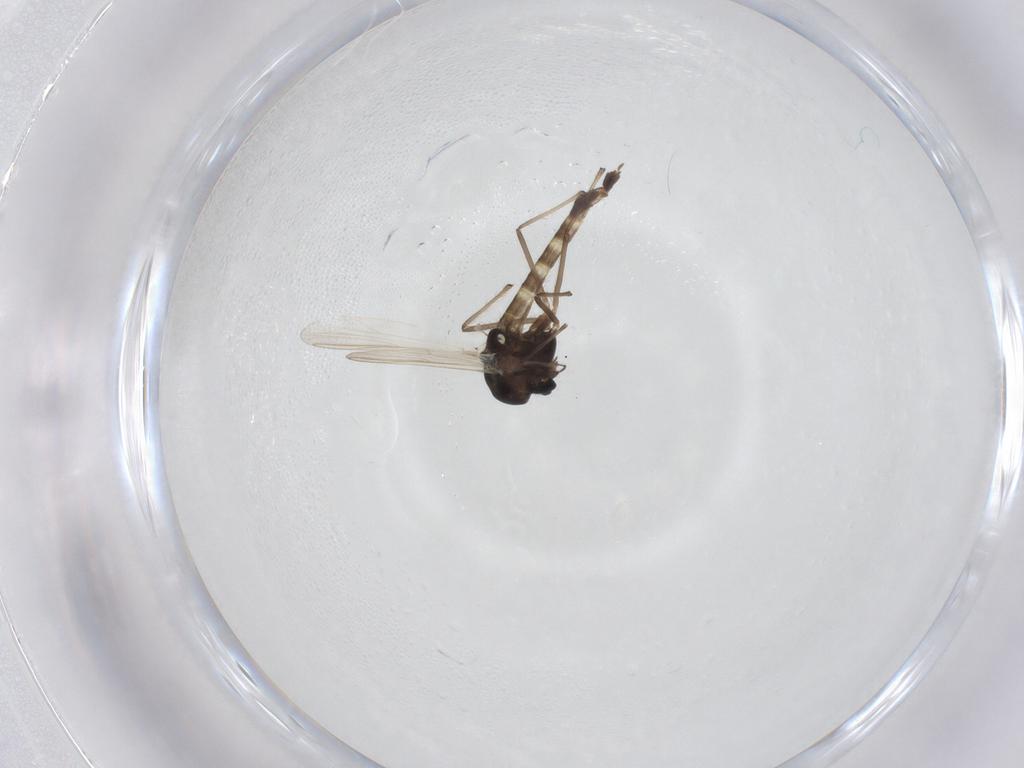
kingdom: Animalia
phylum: Arthropoda
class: Insecta
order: Diptera
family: Chironomidae
